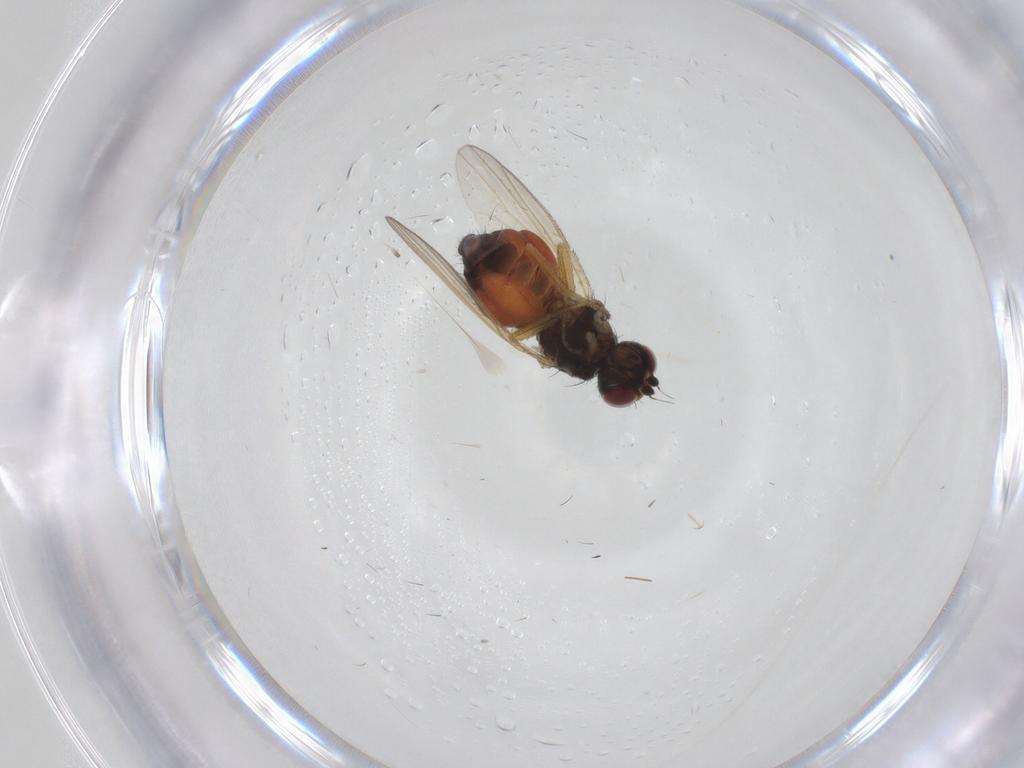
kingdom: Animalia
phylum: Arthropoda
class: Insecta
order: Diptera
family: Heleomyzidae
